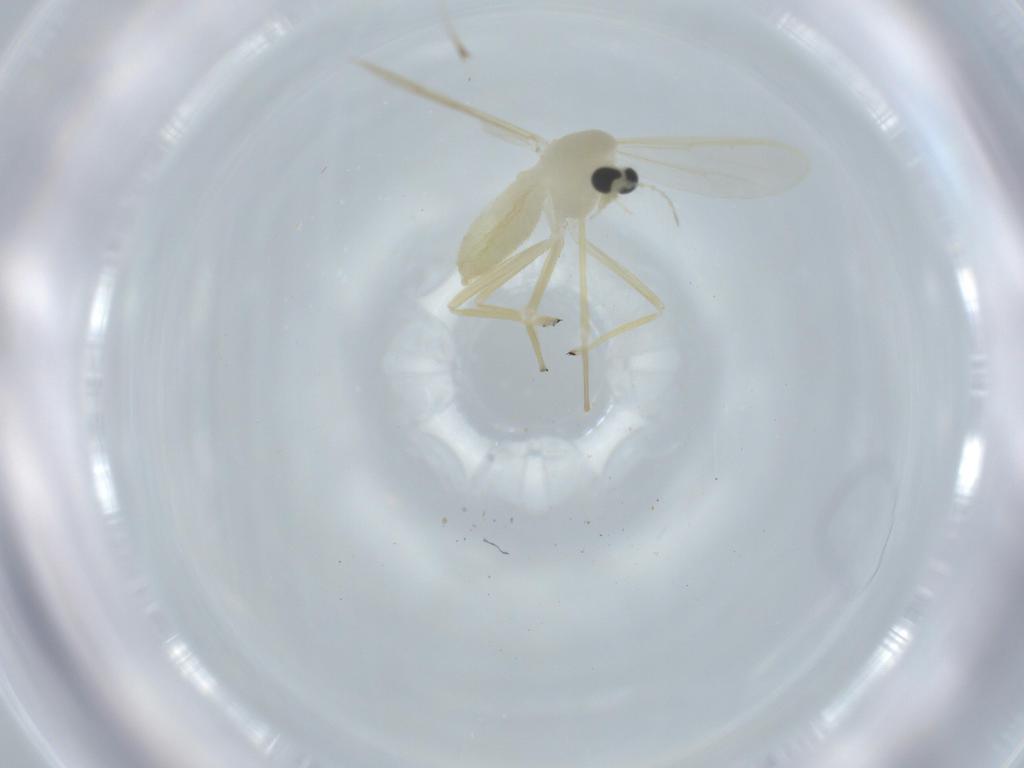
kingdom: Animalia
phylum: Arthropoda
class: Insecta
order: Diptera
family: Chironomidae
